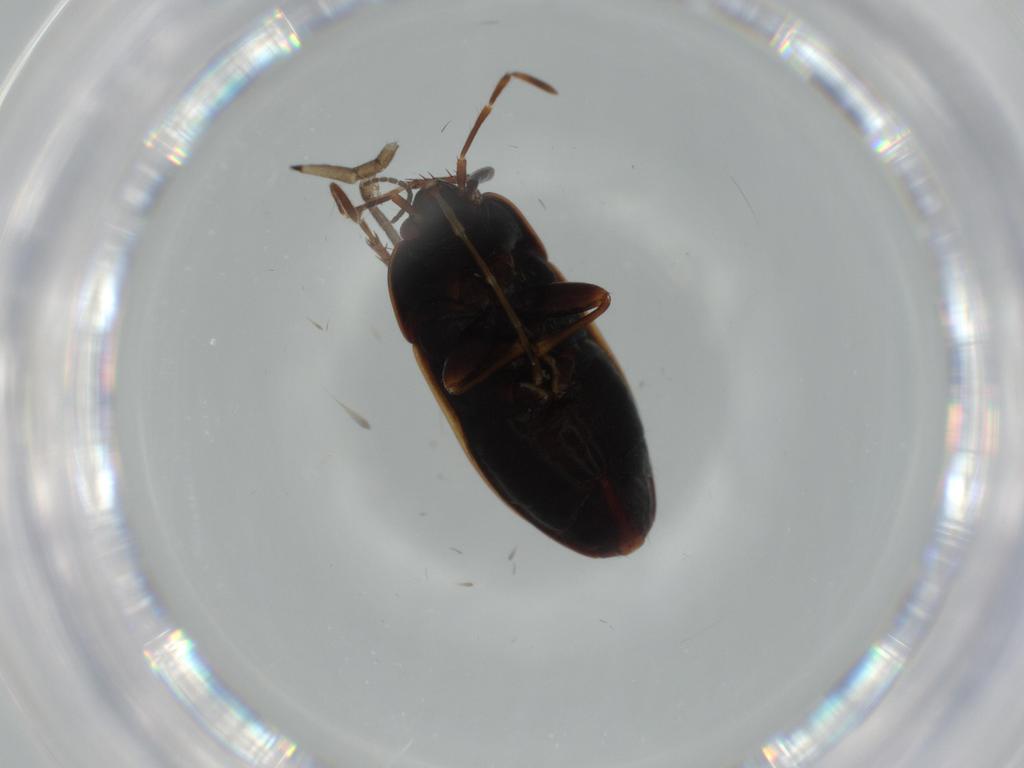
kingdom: Animalia
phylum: Arthropoda
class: Insecta
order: Hemiptera
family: Rhyparochromidae
